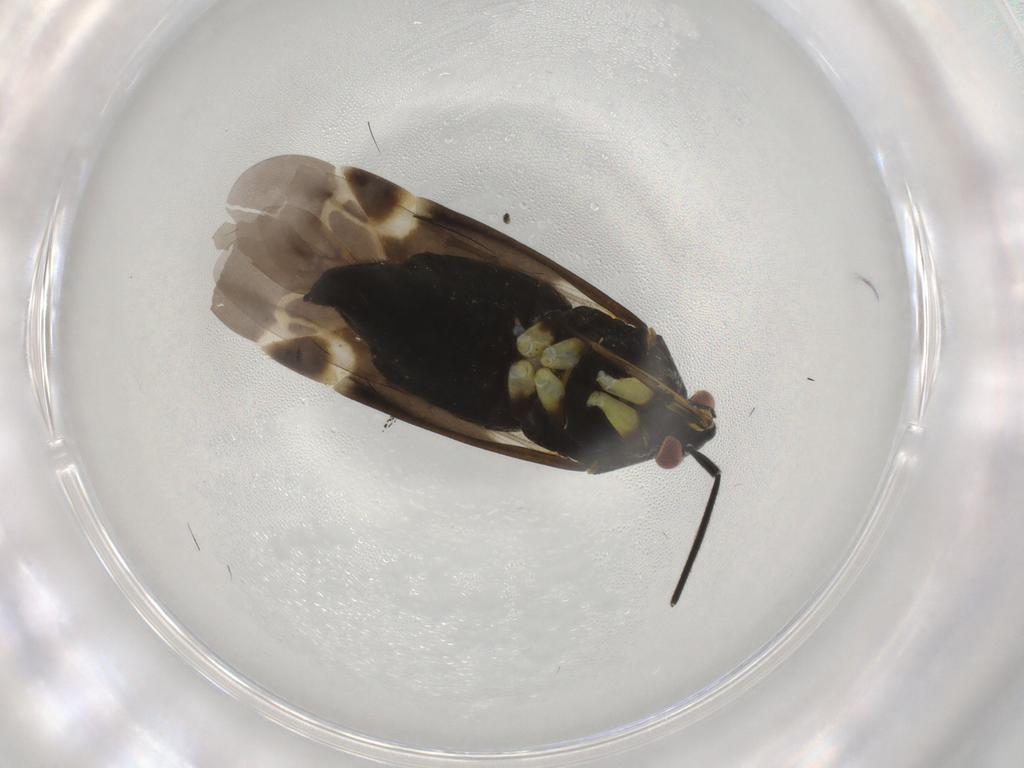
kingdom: Animalia
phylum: Arthropoda
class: Insecta
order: Hemiptera
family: Miridae
